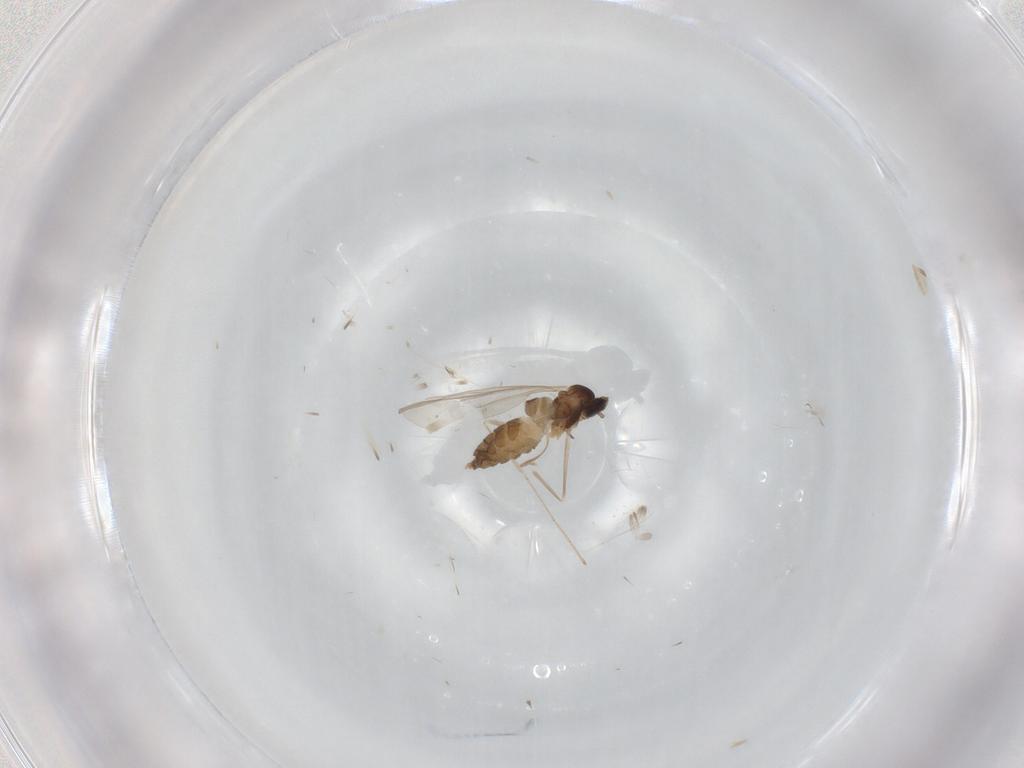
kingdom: Animalia
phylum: Arthropoda
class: Insecta
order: Diptera
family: Cecidomyiidae
